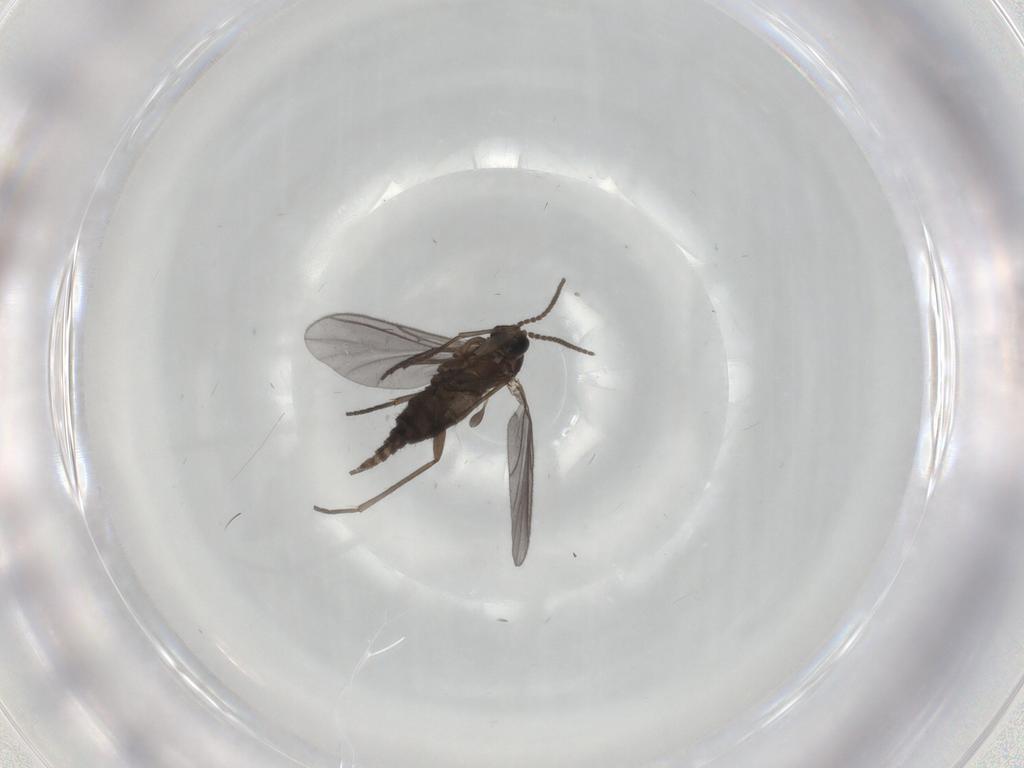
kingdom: Animalia
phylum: Arthropoda
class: Insecta
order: Diptera
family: Sciaridae
